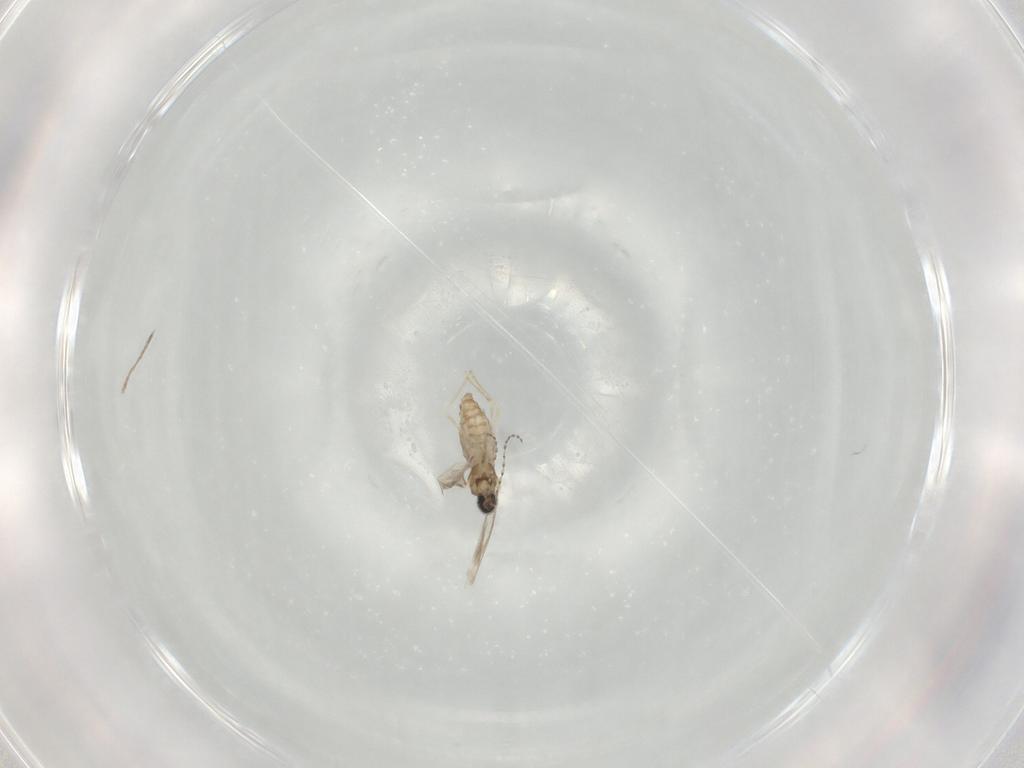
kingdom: Animalia
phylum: Arthropoda
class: Insecta
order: Diptera
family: Cecidomyiidae
